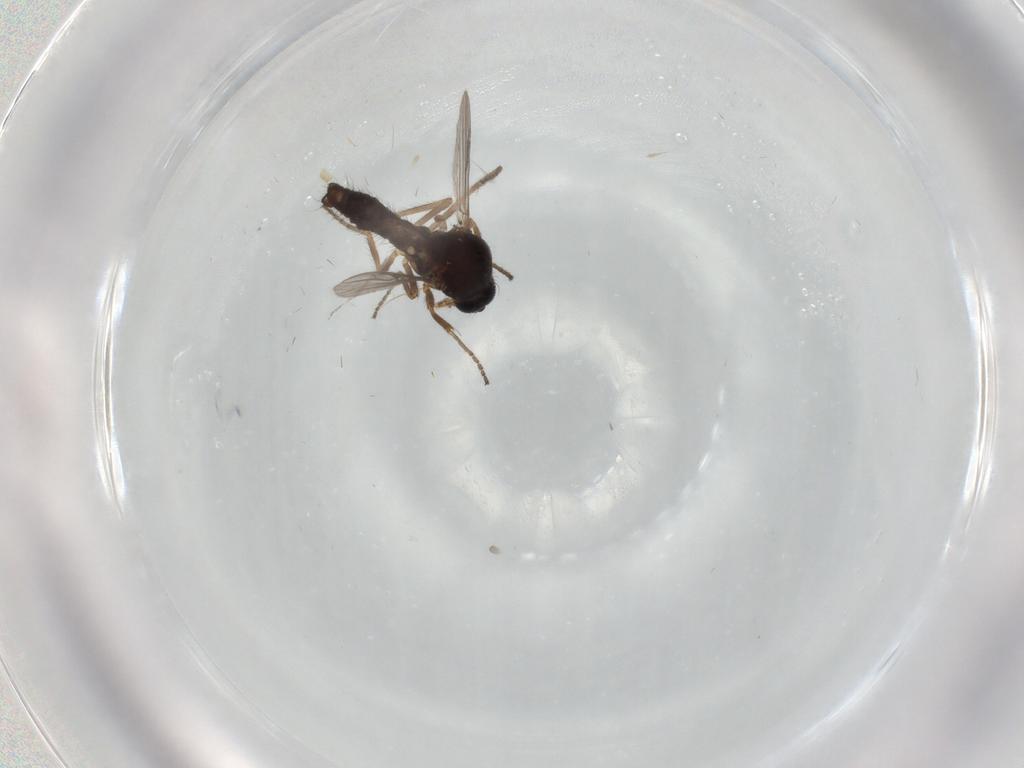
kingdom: Animalia
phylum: Arthropoda
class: Insecta
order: Diptera
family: Ceratopogonidae
